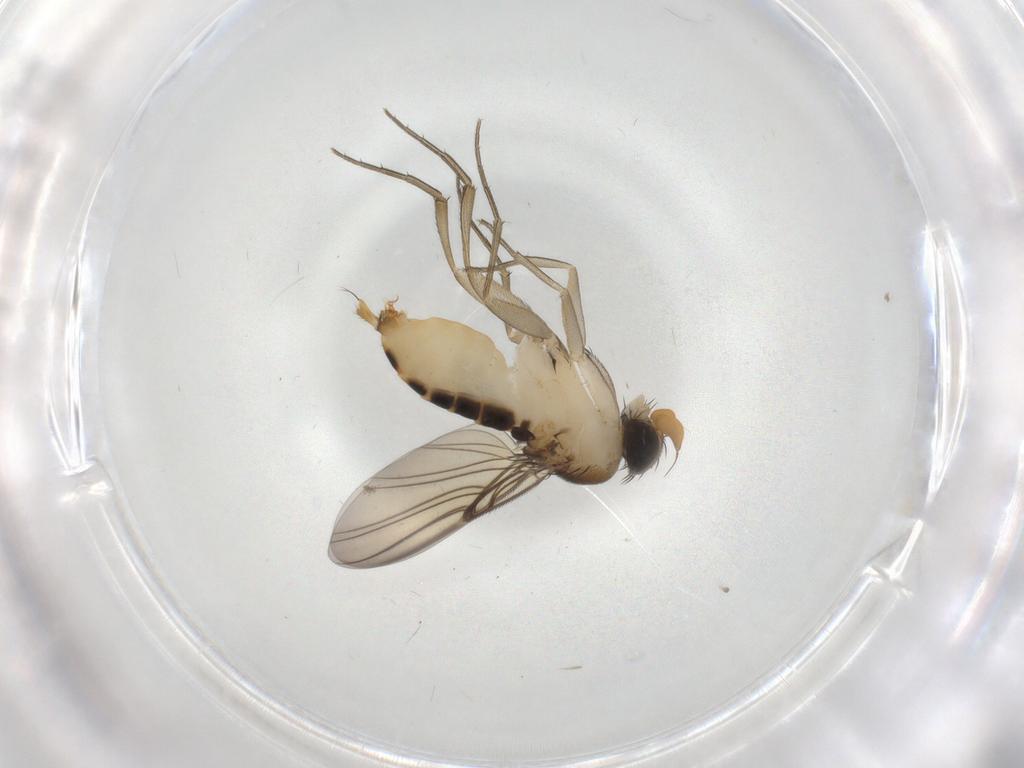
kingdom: Animalia
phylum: Arthropoda
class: Insecta
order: Diptera
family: Phoridae
